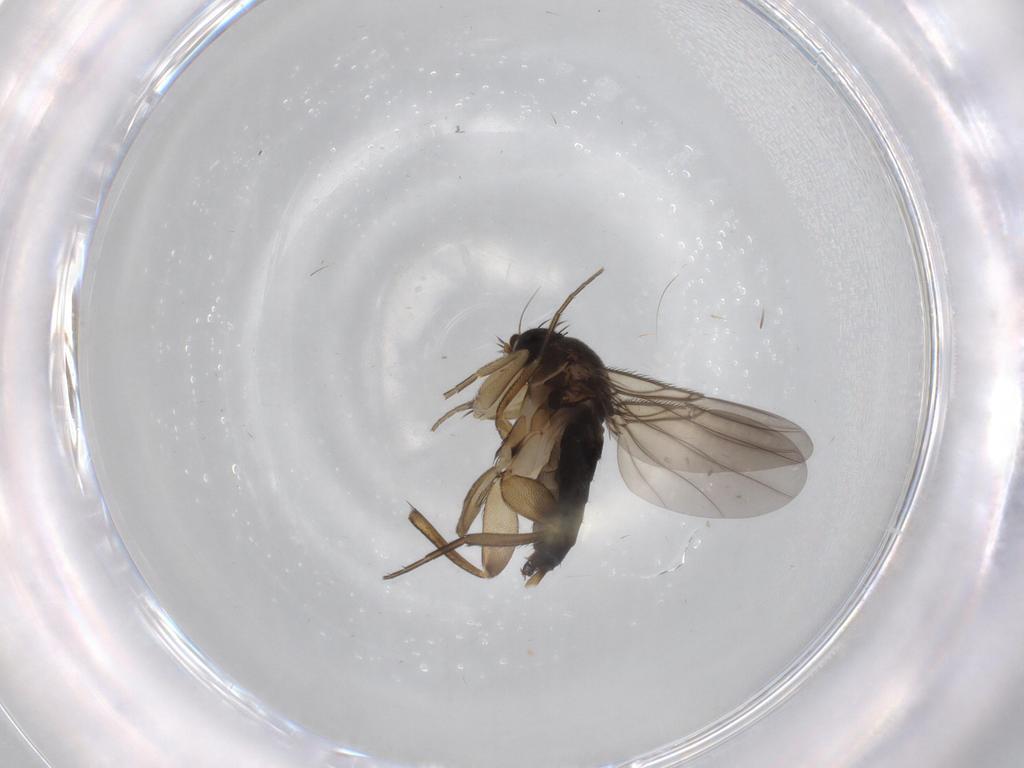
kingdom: Animalia
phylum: Arthropoda
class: Insecta
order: Diptera
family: Phoridae
